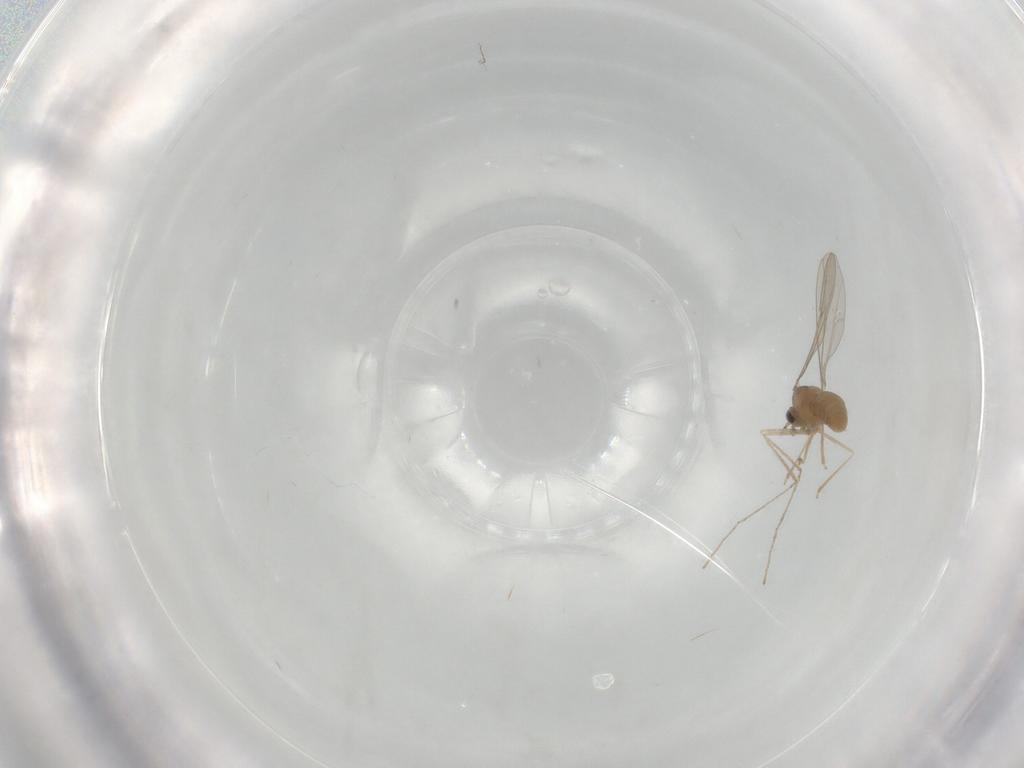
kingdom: Animalia
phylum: Arthropoda
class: Insecta
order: Diptera
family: Cecidomyiidae
